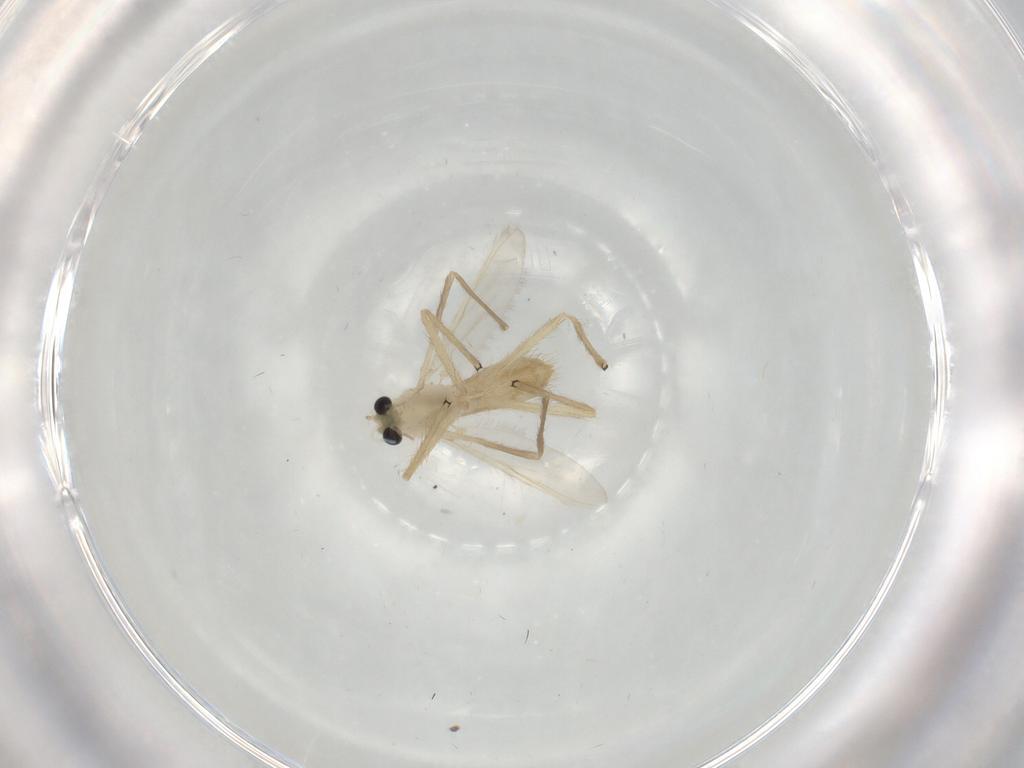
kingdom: Animalia
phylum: Arthropoda
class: Insecta
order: Diptera
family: Chironomidae
